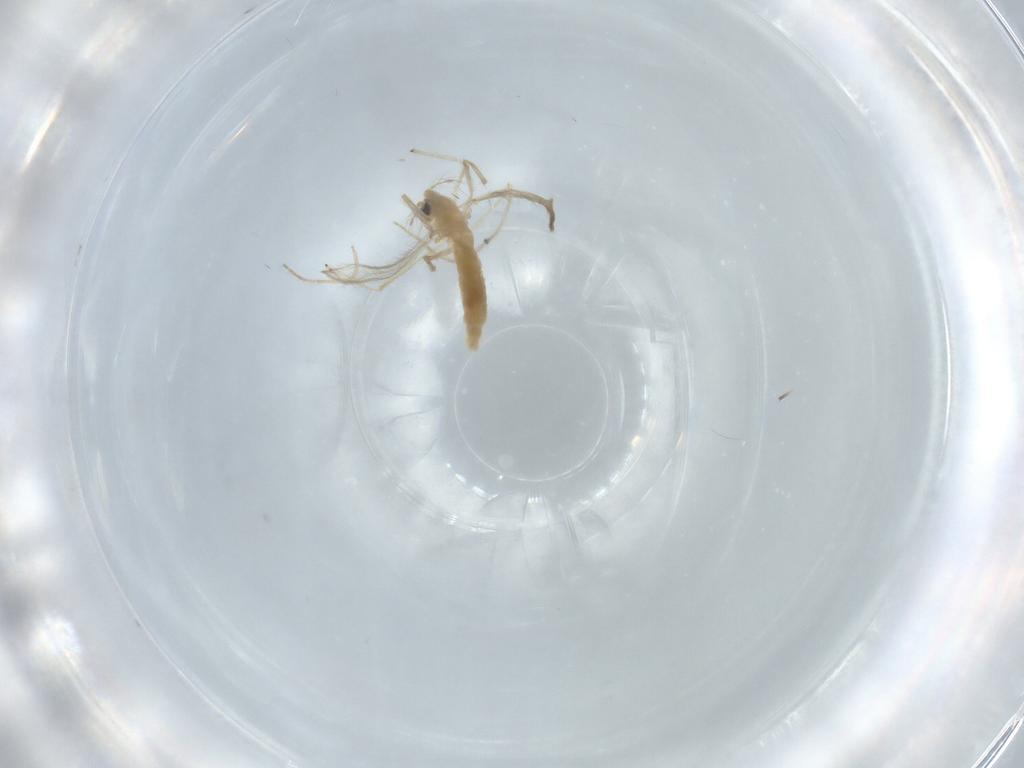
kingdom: Animalia
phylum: Arthropoda
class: Insecta
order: Diptera
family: Chironomidae
